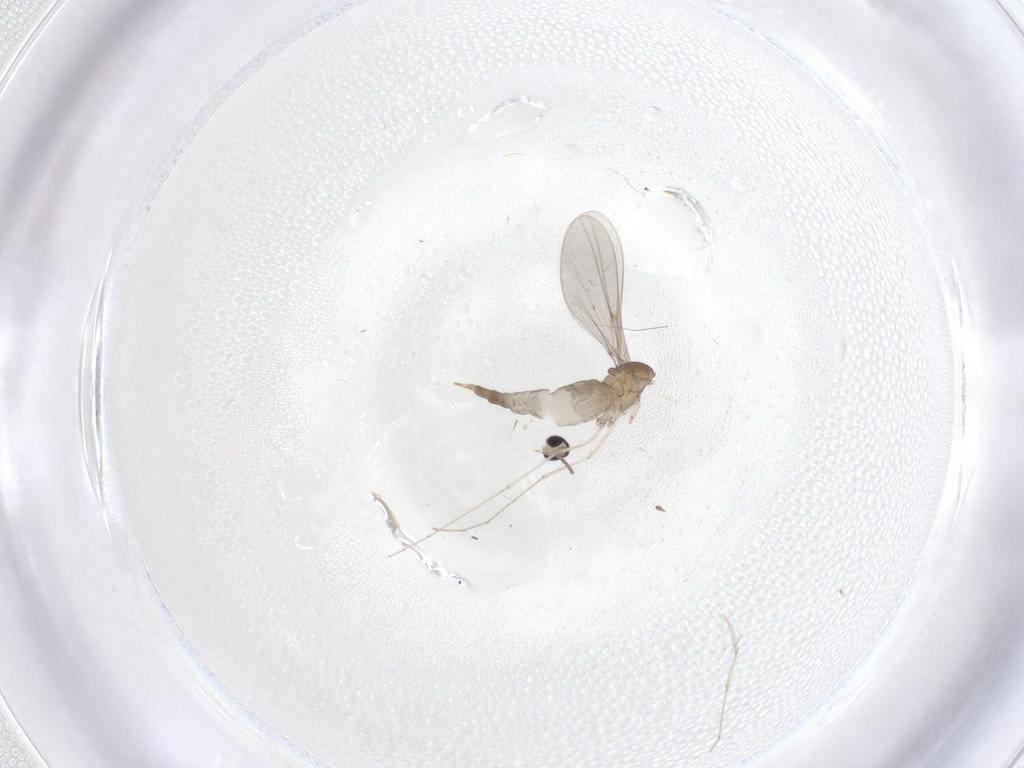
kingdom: Animalia
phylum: Arthropoda
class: Insecta
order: Diptera
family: Cecidomyiidae
